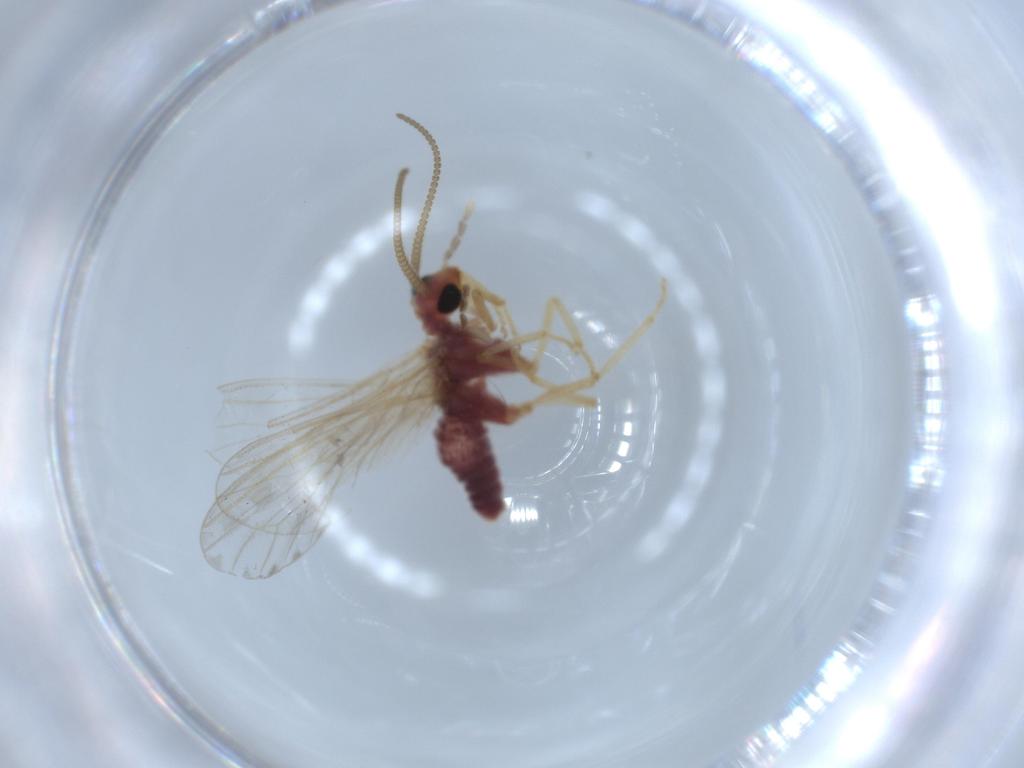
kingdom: Animalia
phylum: Arthropoda
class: Insecta
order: Neuroptera
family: Coniopterygidae
